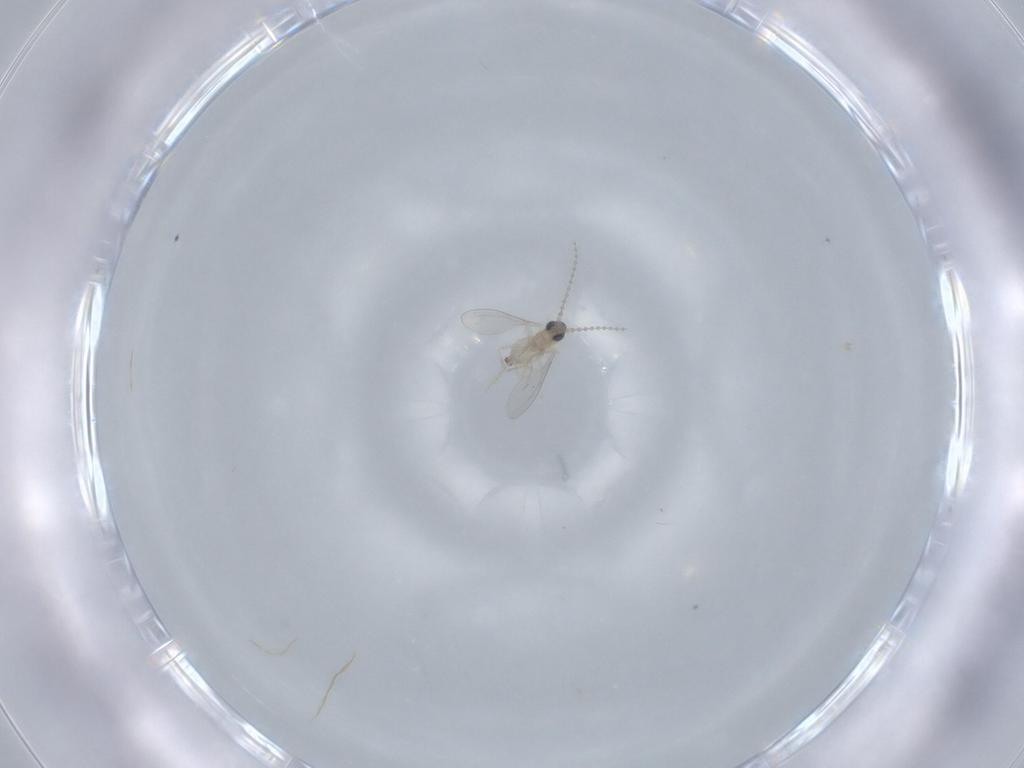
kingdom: Animalia
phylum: Arthropoda
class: Insecta
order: Diptera
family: Cecidomyiidae
